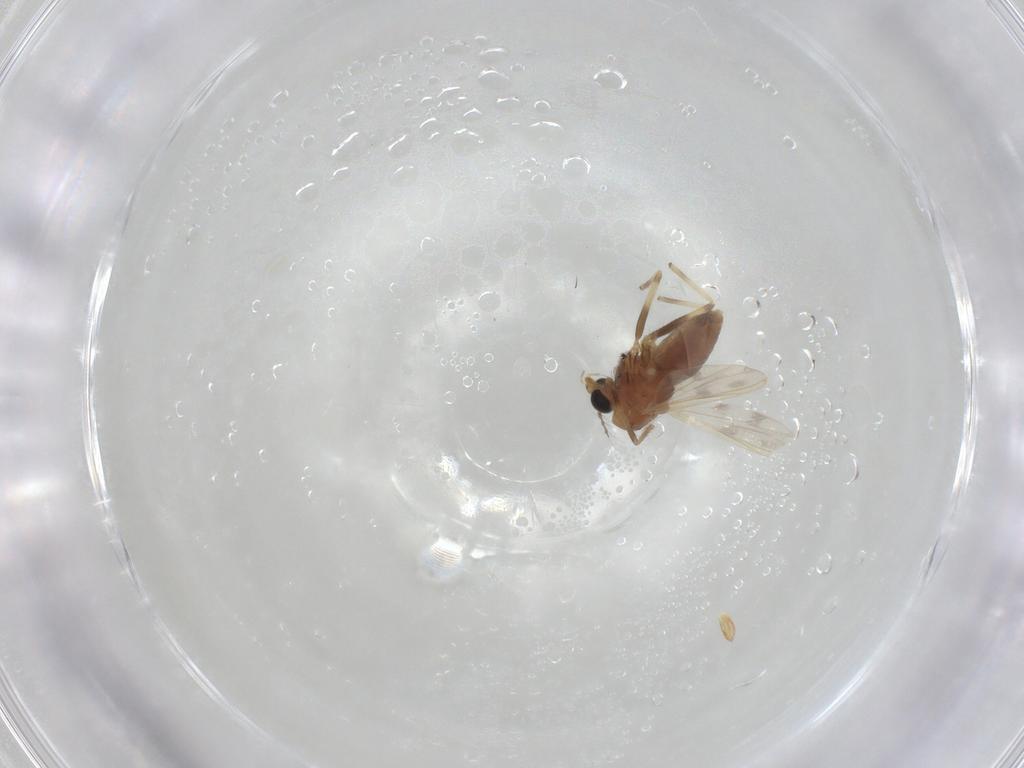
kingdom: Animalia
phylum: Arthropoda
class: Insecta
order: Diptera
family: Chironomidae
